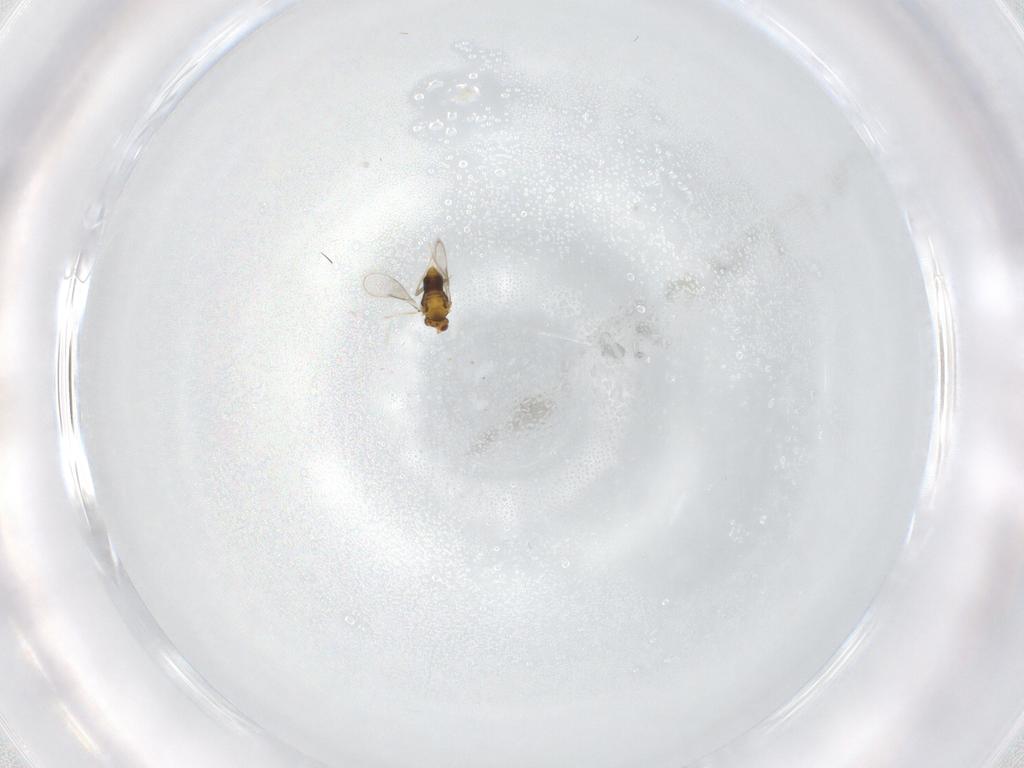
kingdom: Animalia
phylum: Arthropoda
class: Insecta
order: Hymenoptera
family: Aphelinidae
